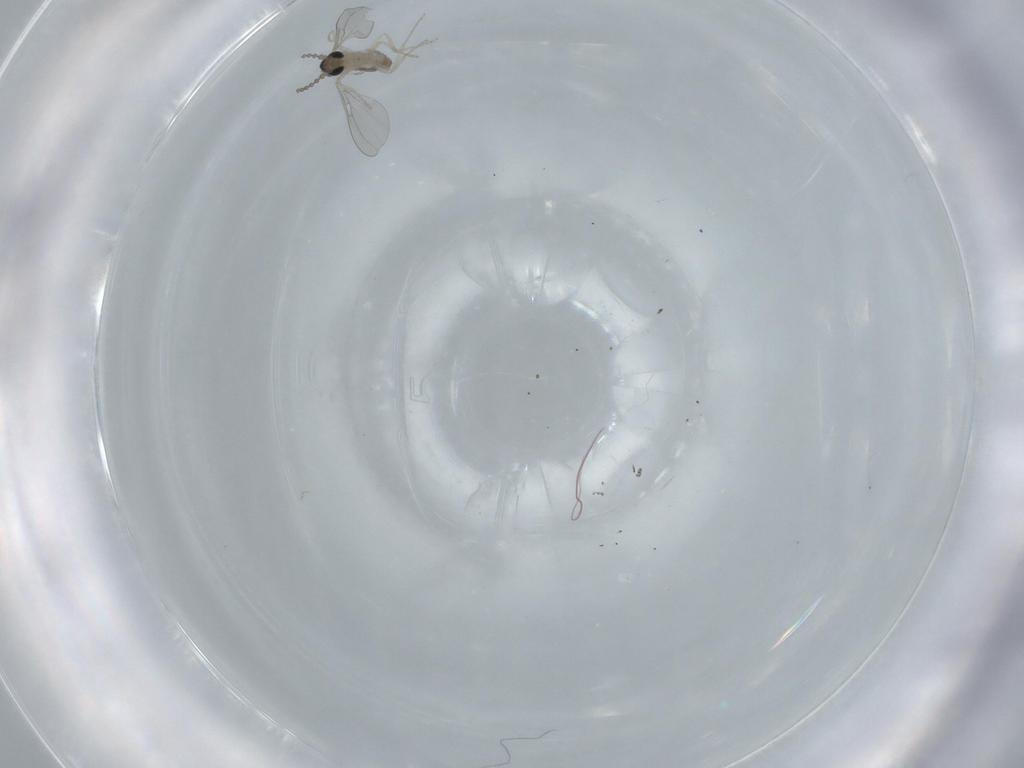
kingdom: Animalia
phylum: Arthropoda
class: Insecta
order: Diptera
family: Cecidomyiidae
